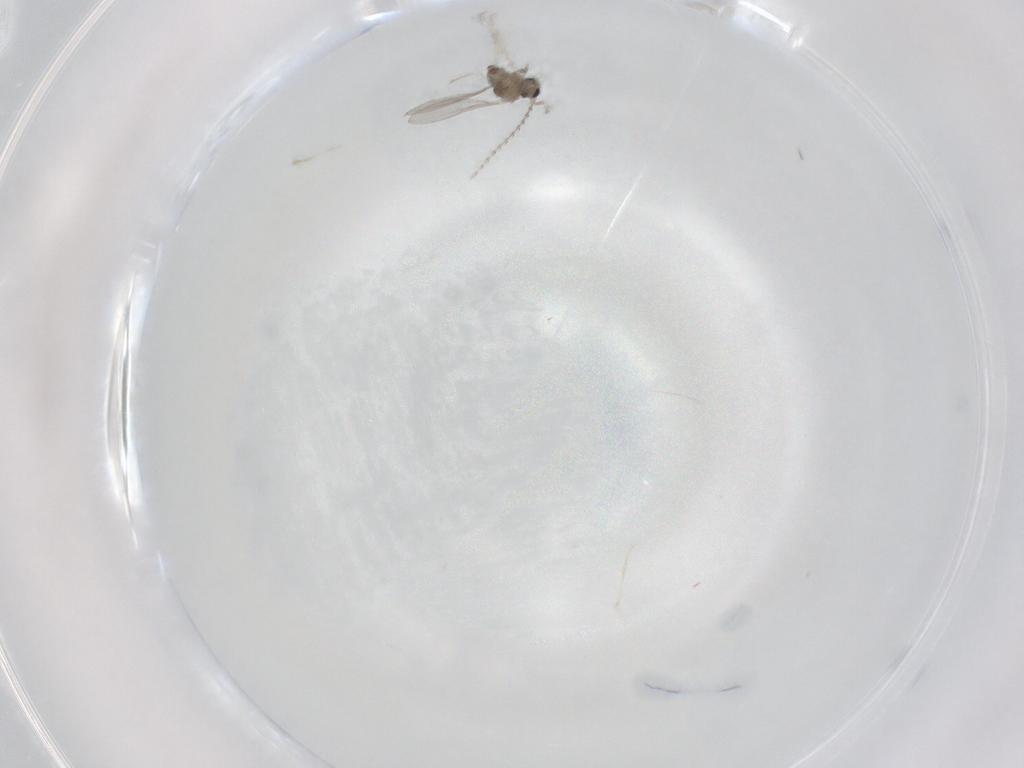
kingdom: Animalia
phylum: Arthropoda
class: Insecta
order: Diptera
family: Cecidomyiidae
